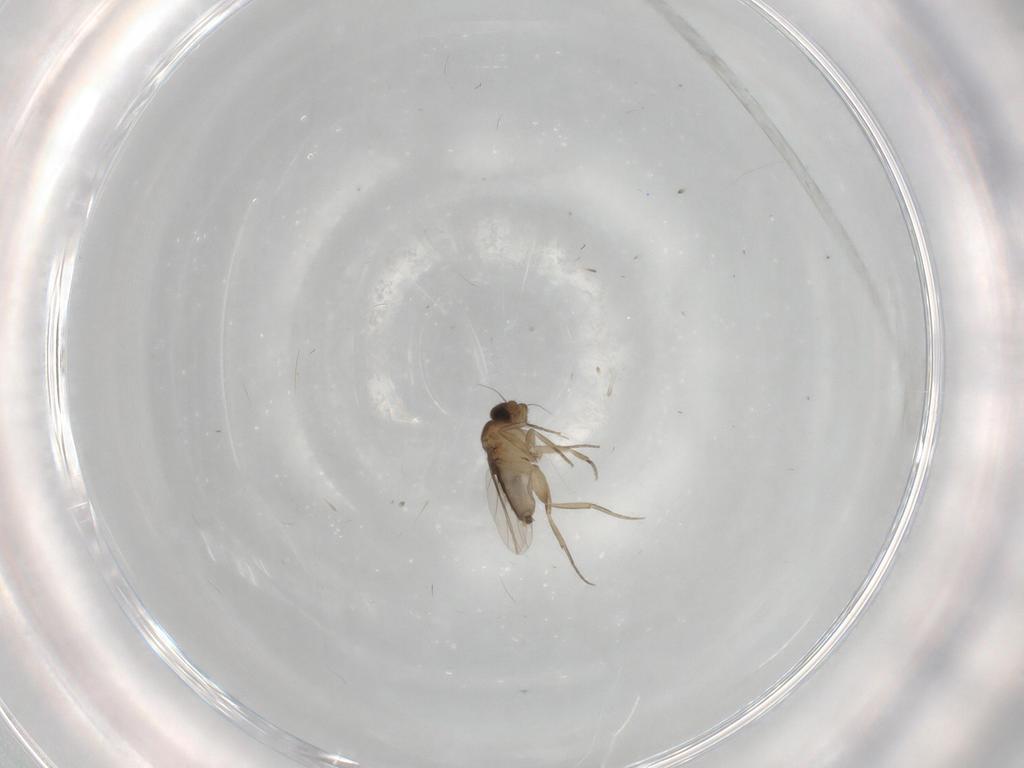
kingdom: Animalia
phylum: Arthropoda
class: Insecta
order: Diptera
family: Phoridae
